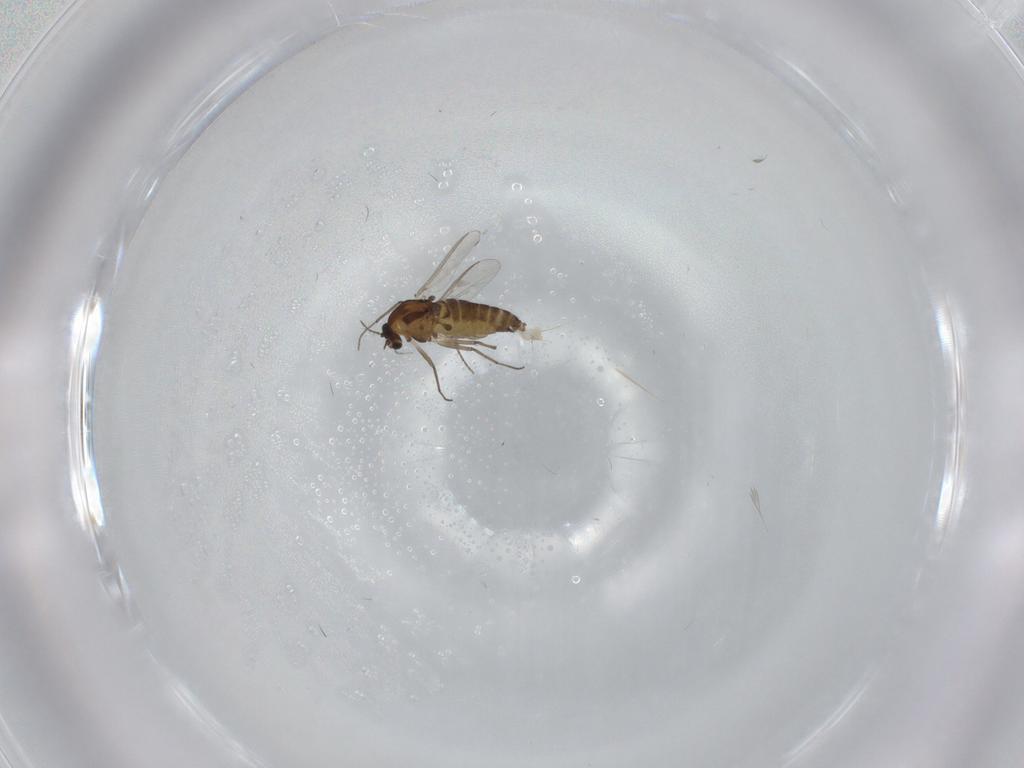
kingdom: Animalia
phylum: Arthropoda
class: Insecta
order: Diptera
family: Chironomidae
